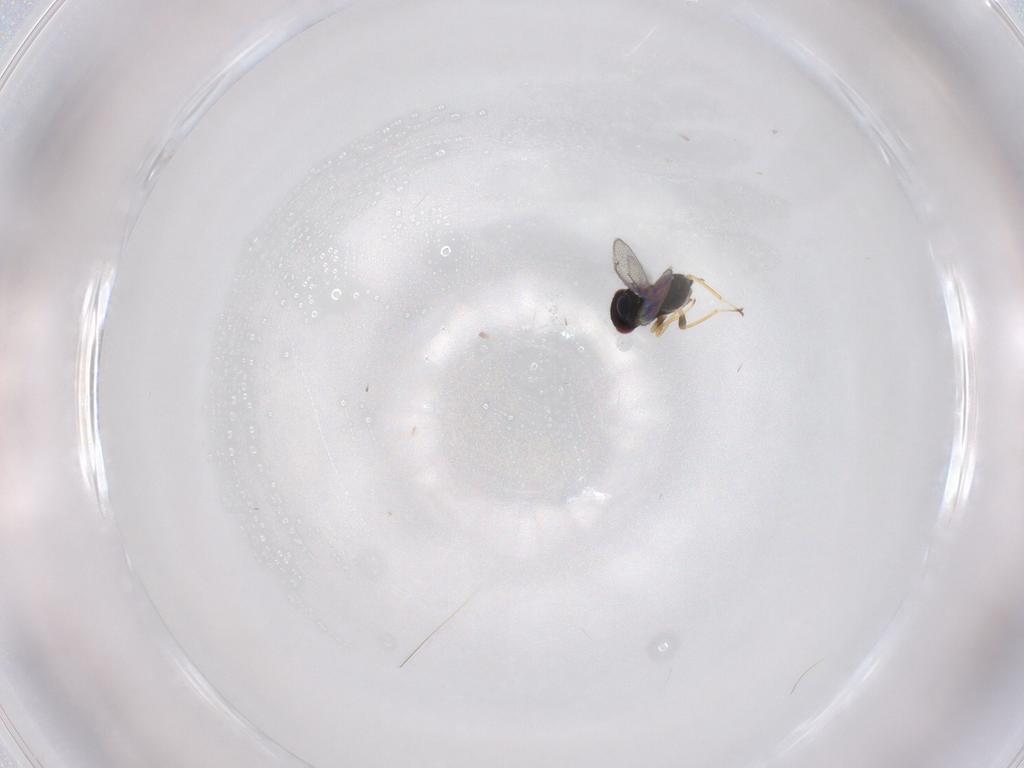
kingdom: Animalia
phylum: Arthropoda
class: Insecta
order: Hymenoptera
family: Eulophidae
